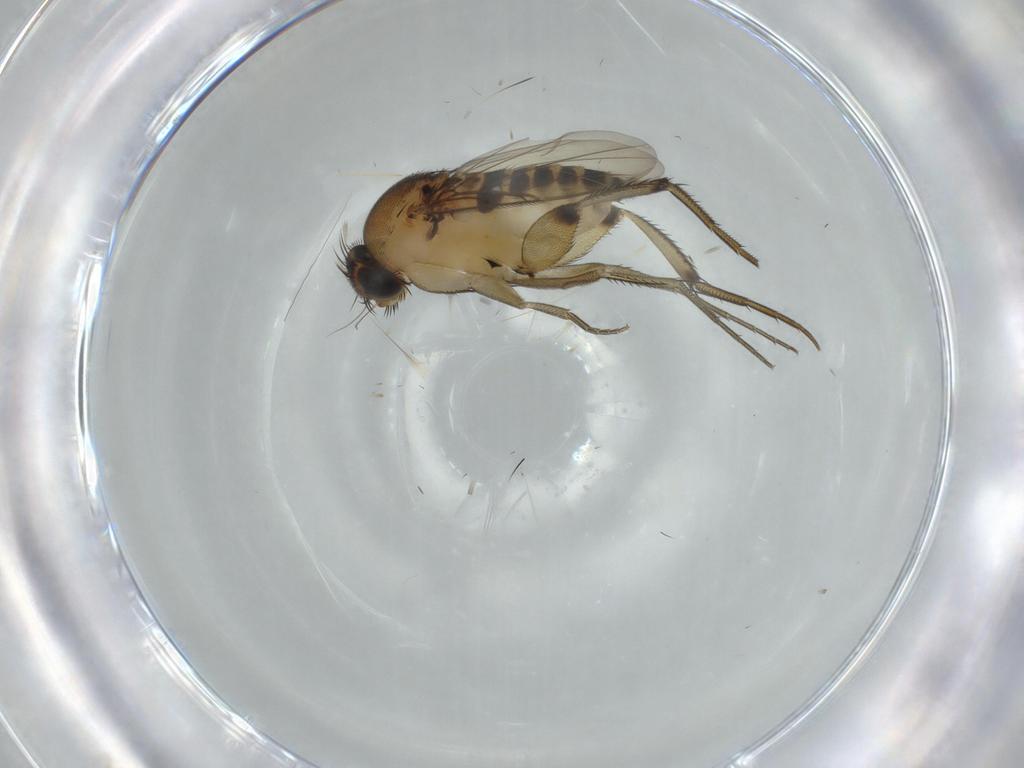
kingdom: Animalia
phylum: Arthropoda
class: Insecta
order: Diptera
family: Phoridae
